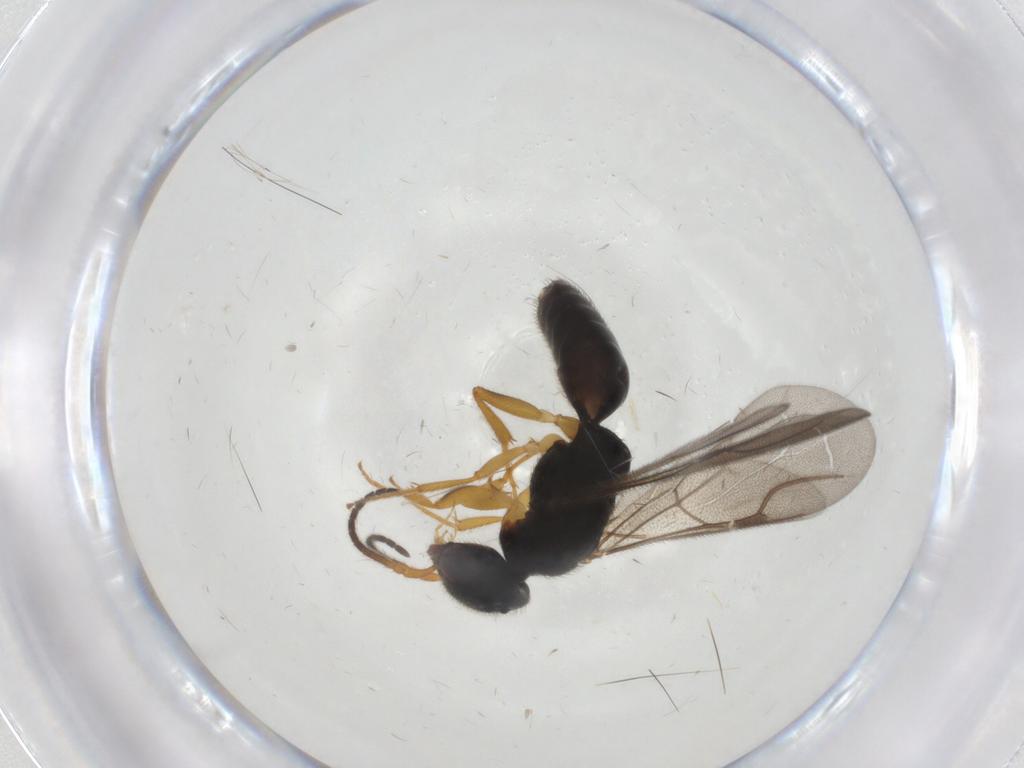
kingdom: Animalia
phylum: Arthropoda
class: Insecta
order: Hymenoptera
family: Bethylidae
